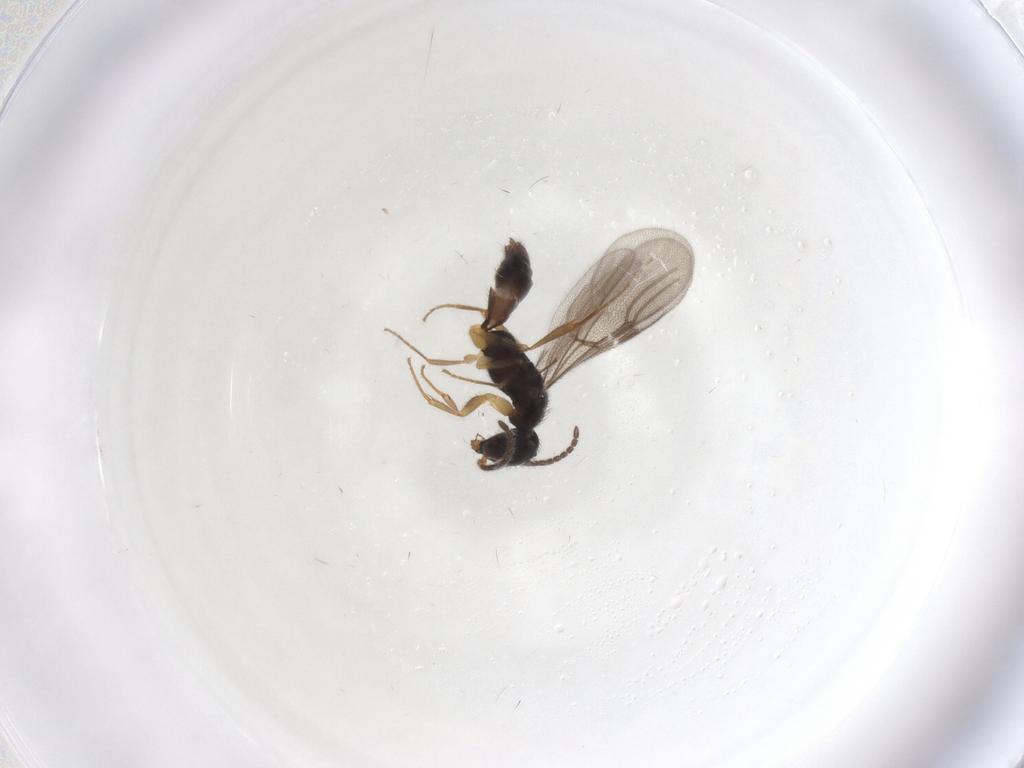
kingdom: Animalia
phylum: Arthropoda
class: Insecta
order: Hymenoptera
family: Bethylidae
